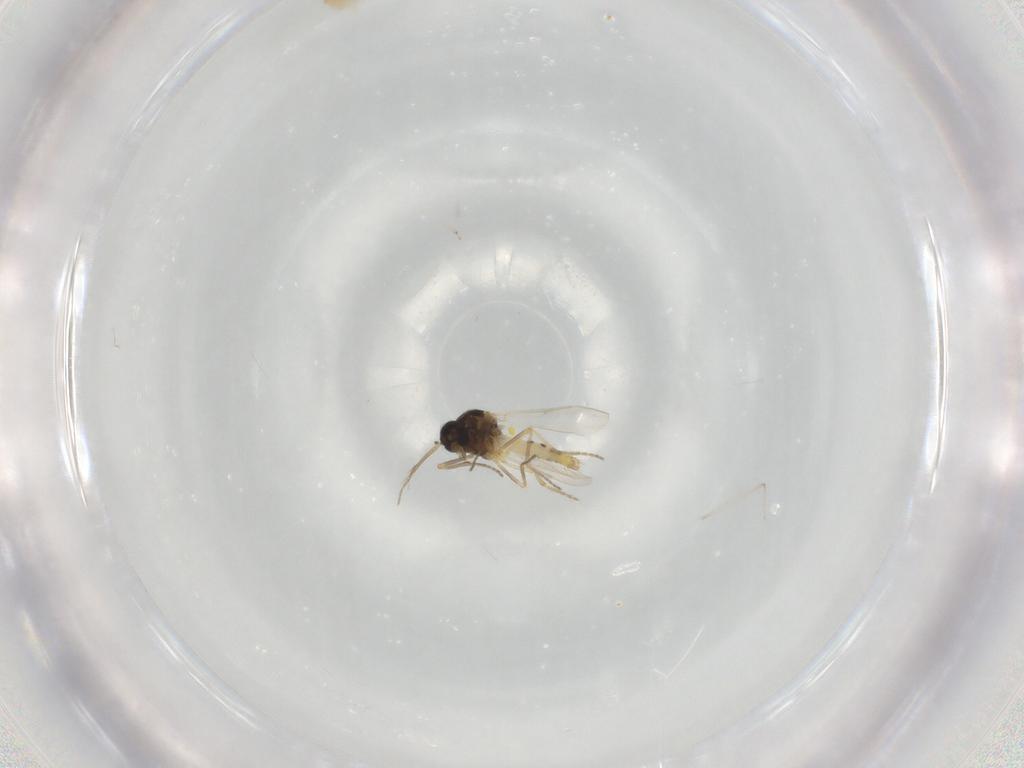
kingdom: Animalia
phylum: Arthropoda
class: Insecta
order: Diptera
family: Ceratopogonidae
